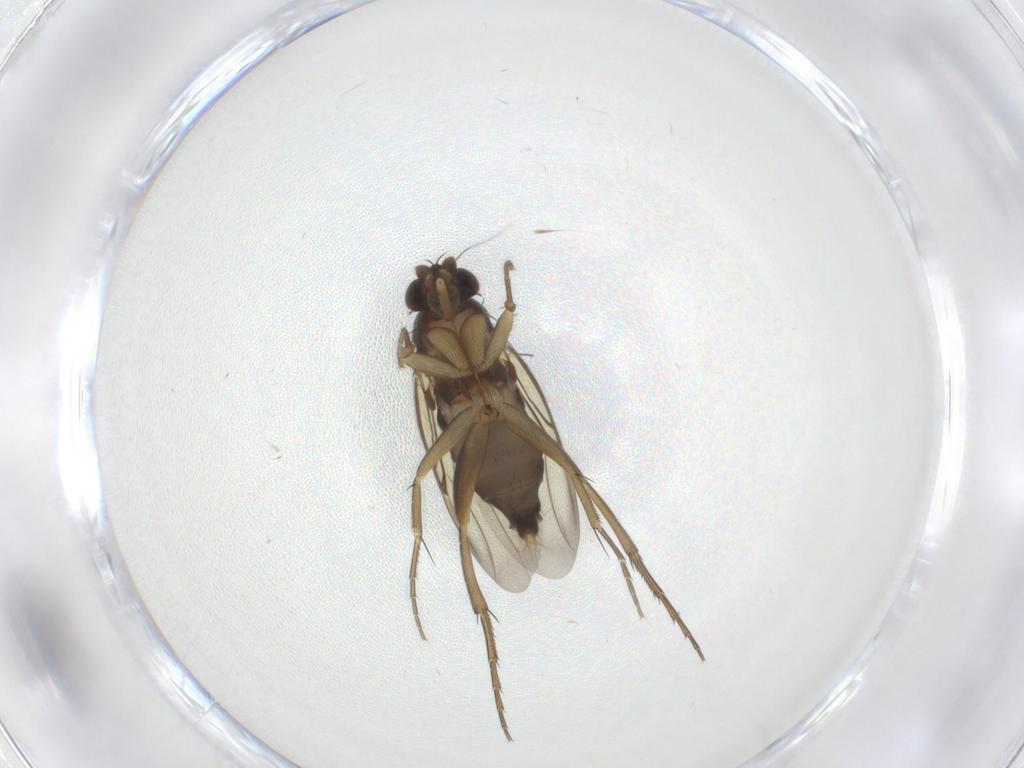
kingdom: Animalia
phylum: Arthropoda
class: Insecta
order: Diptera
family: Phoridae
